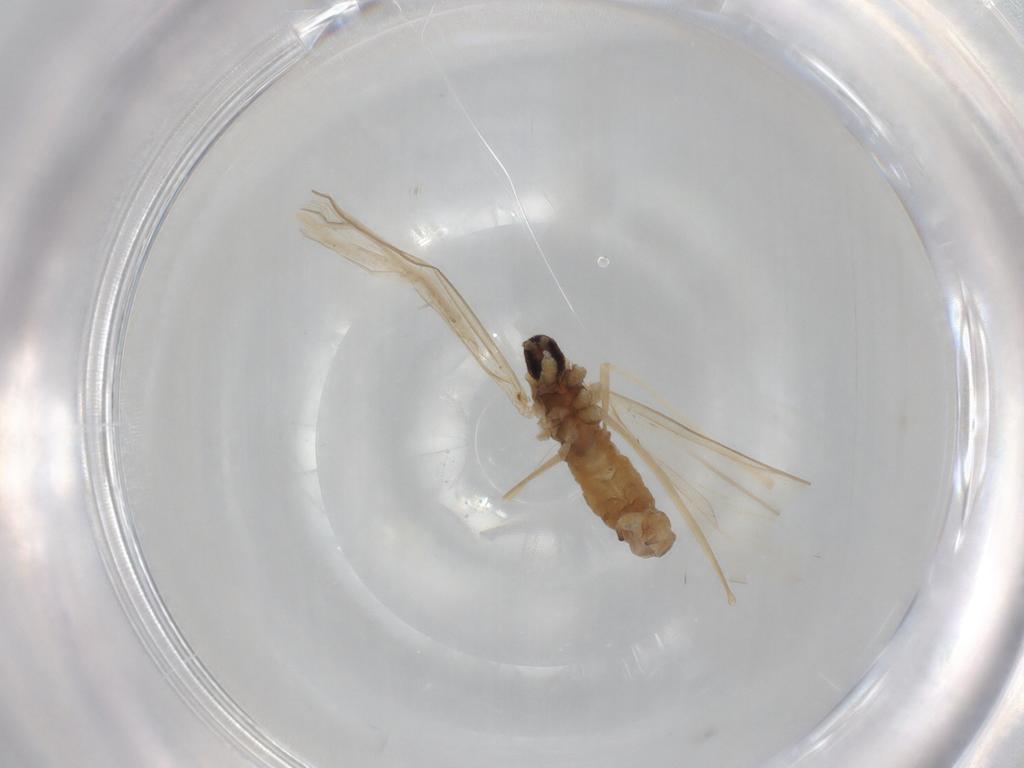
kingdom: Animalia
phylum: Arthropoda
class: Insecta
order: Diptera
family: Cecidomyiidae
